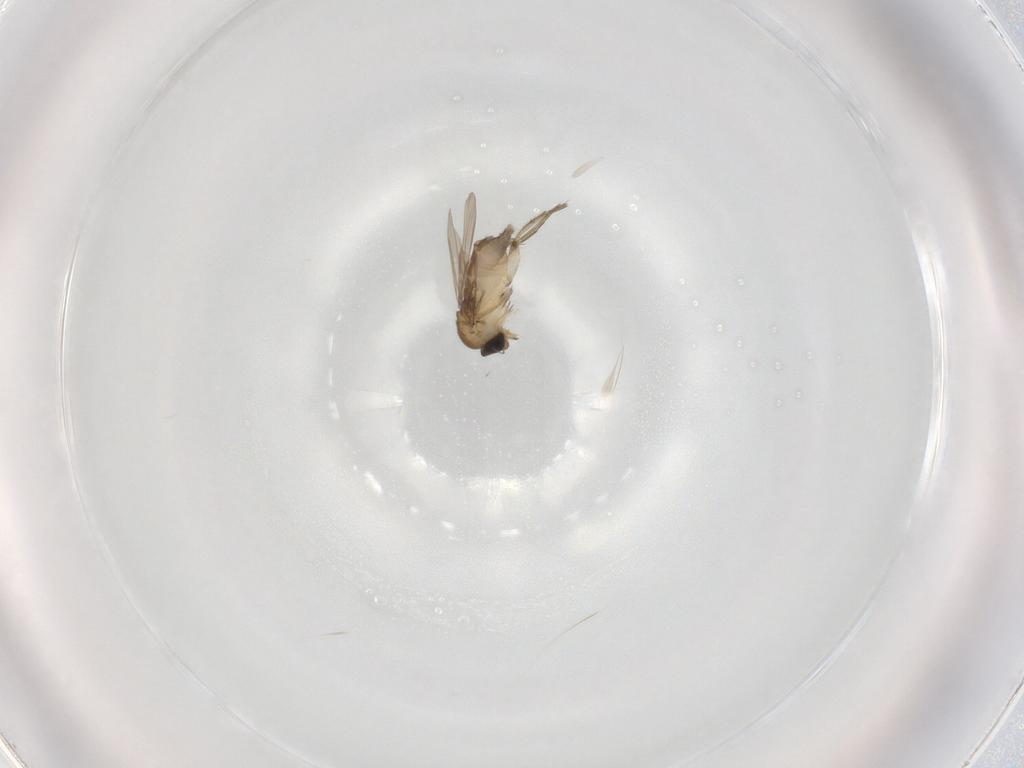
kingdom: Animalia
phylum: Arthropoda
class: Insecta
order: Diptera
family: Phoridae
